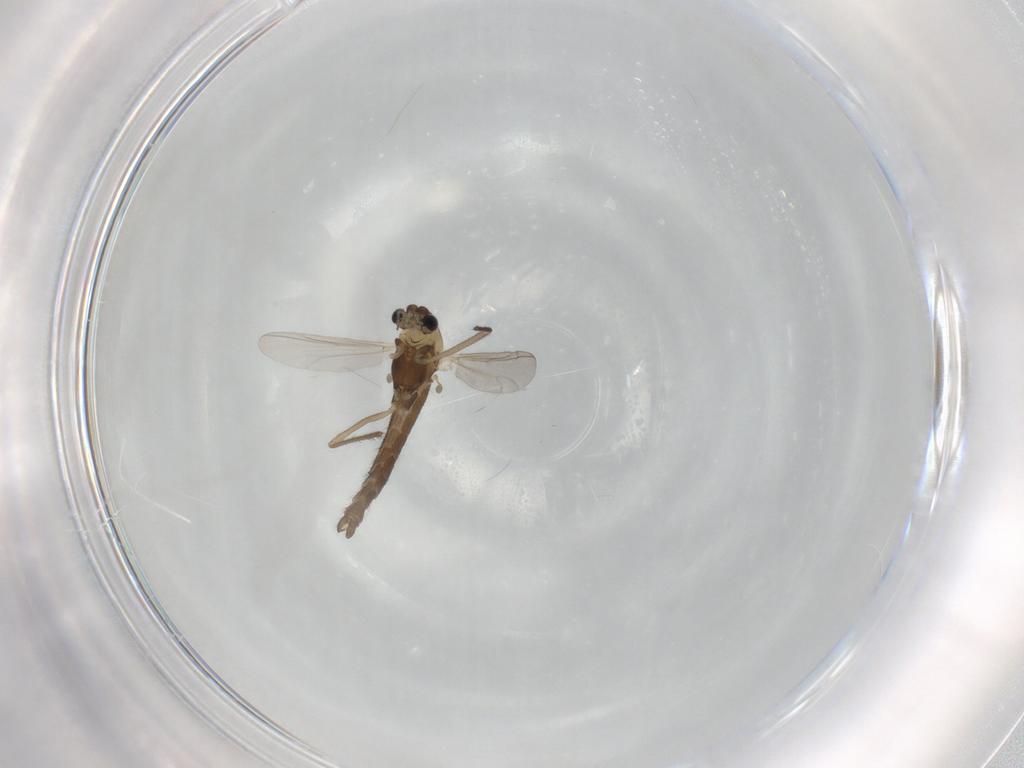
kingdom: Animalia
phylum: Arthropoda
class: Insecta
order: Diptera
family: Chironomidae
